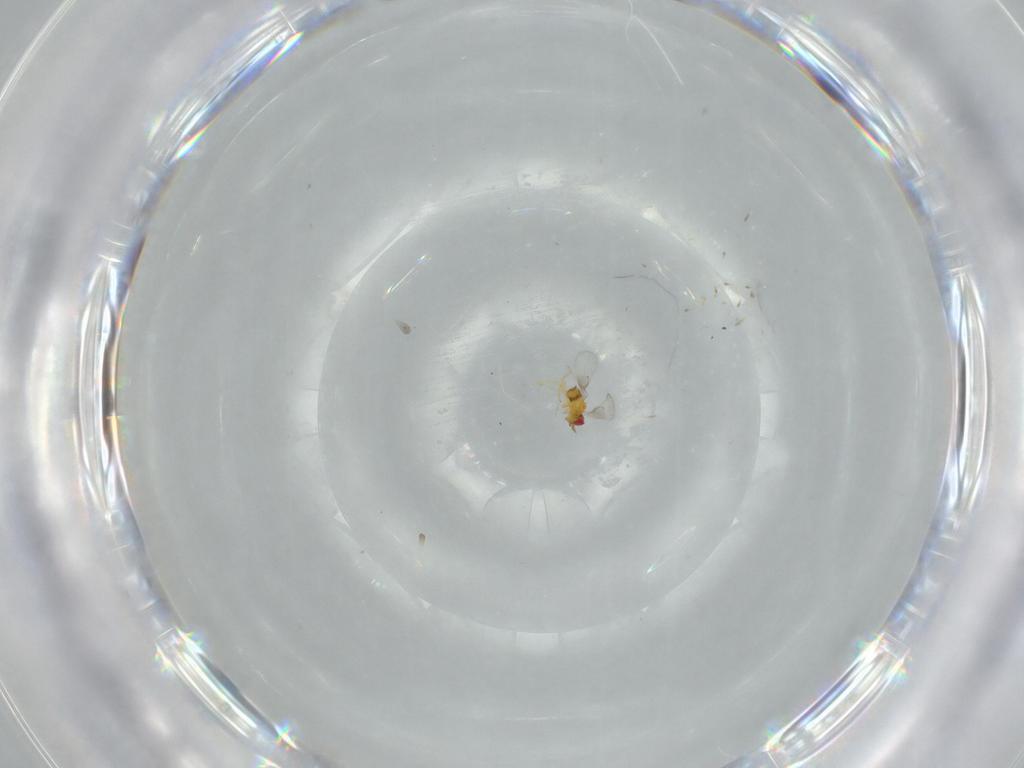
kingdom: Animalia
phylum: Arthropoda
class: Insecta
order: Hymenoptera
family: Trichogrammatidae
